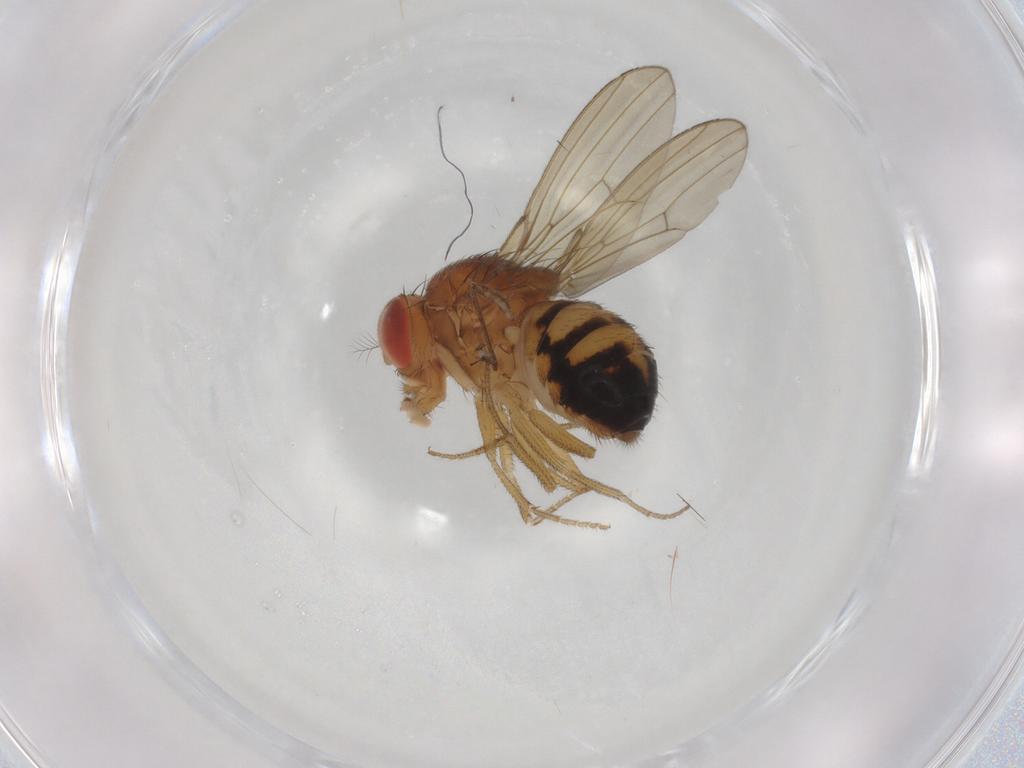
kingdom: Animalia
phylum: Arthropoda
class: Insecta
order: Diptera
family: Drosophilidae
